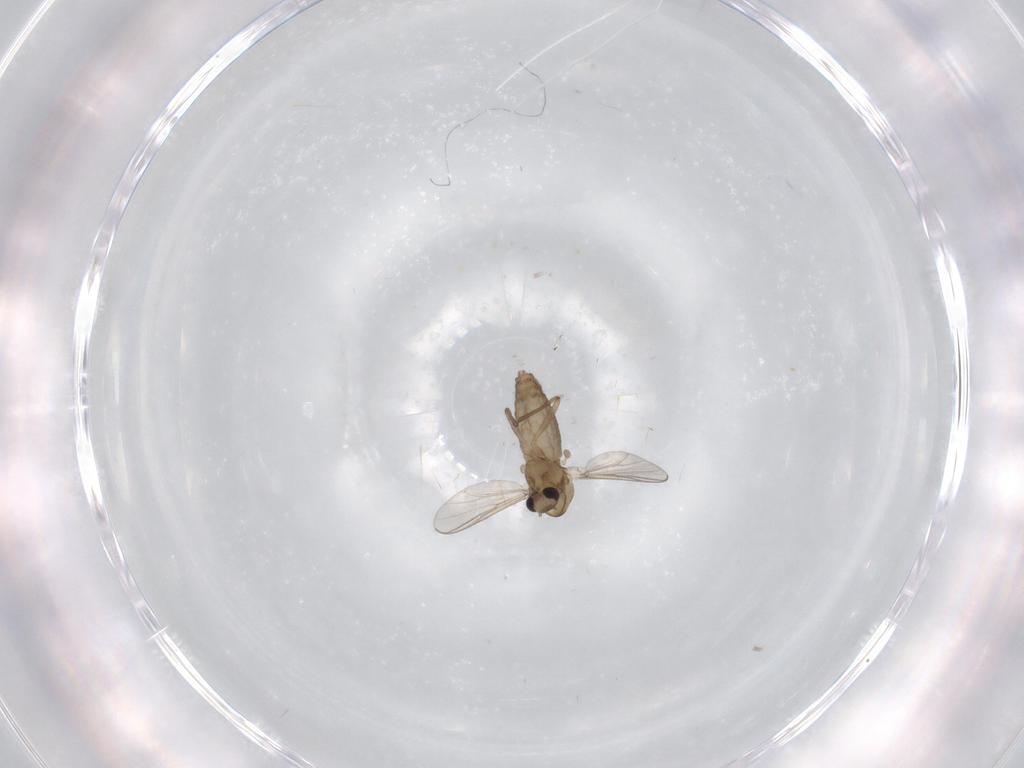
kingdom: Animalia
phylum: Arthropoda
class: Insecta
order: Diptera
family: Chironomidae
